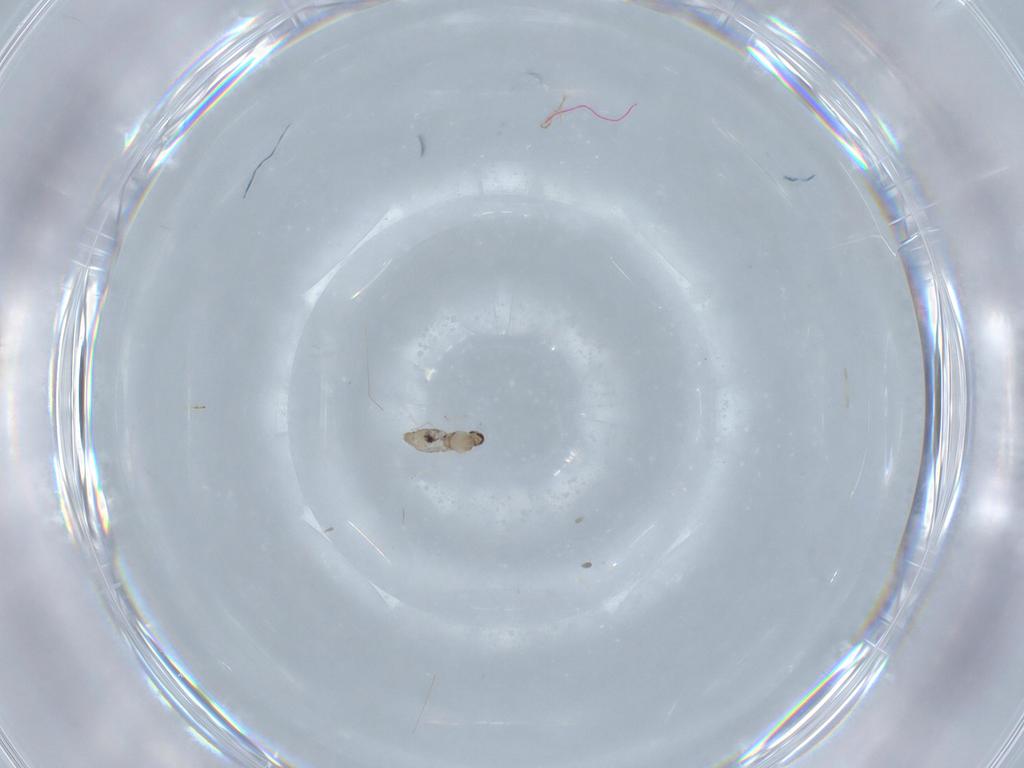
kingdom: Animalia
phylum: Arthropoda
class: Insecta
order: Diptera
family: Cecidomyiidae
